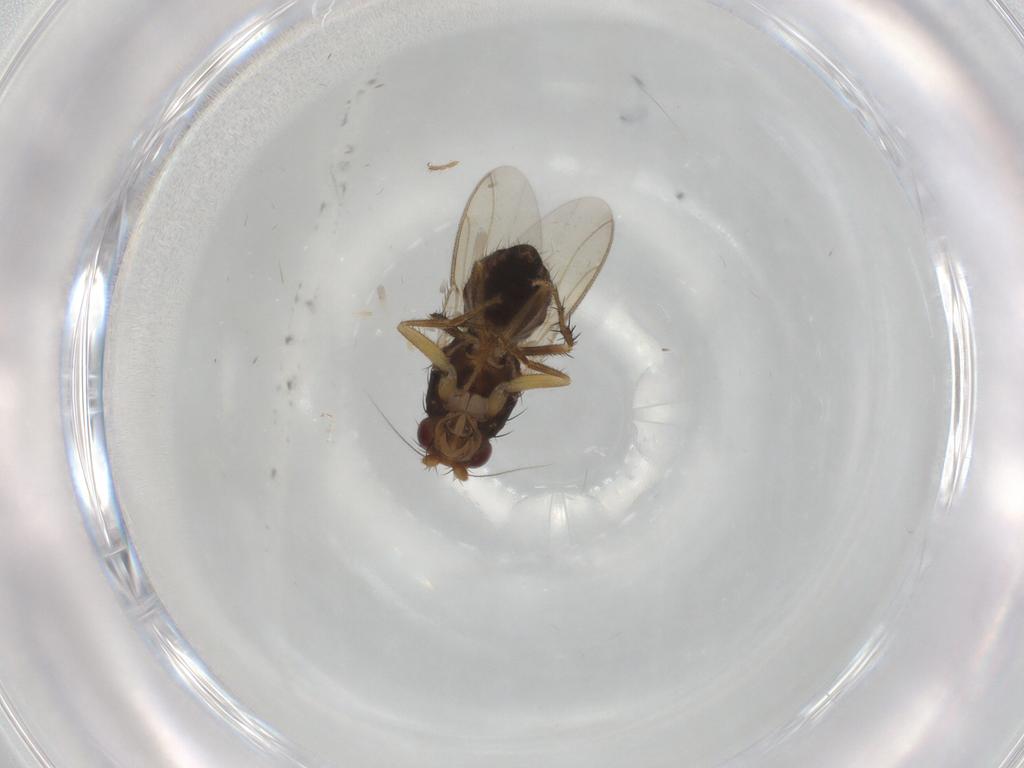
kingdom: Animalia
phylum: Arthropoda
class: Insecta
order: Diptera
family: Sphaeroceridae
